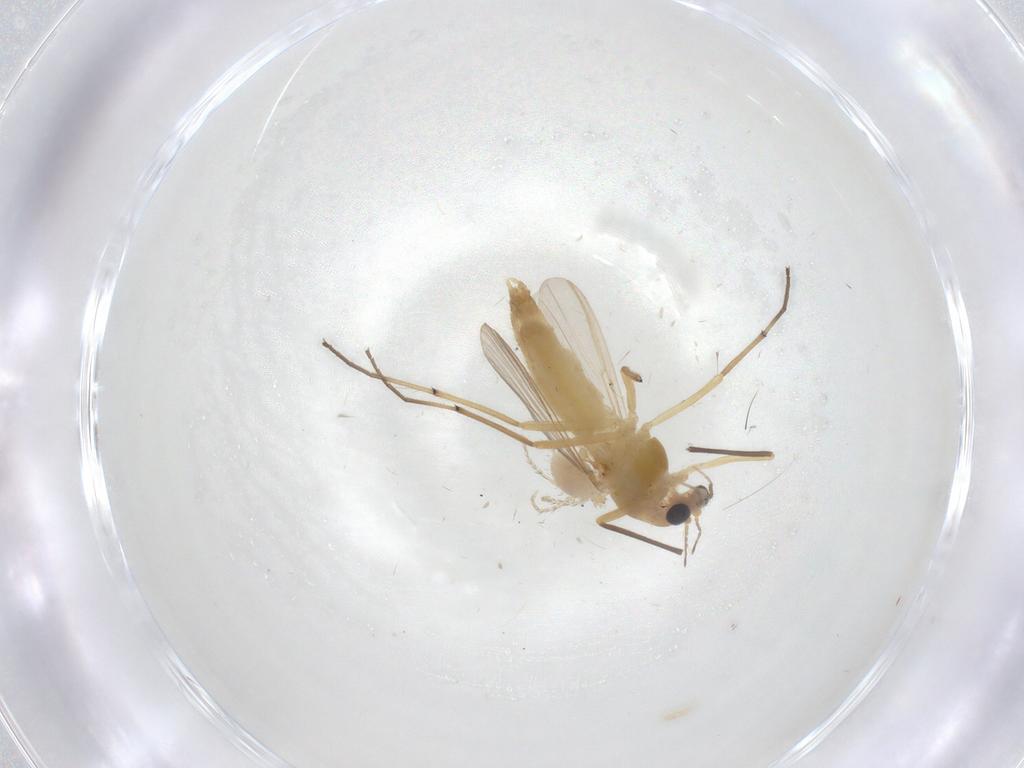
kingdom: Animalia
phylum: Arthropoda
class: Insecta
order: Diptera
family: Chironomidae
